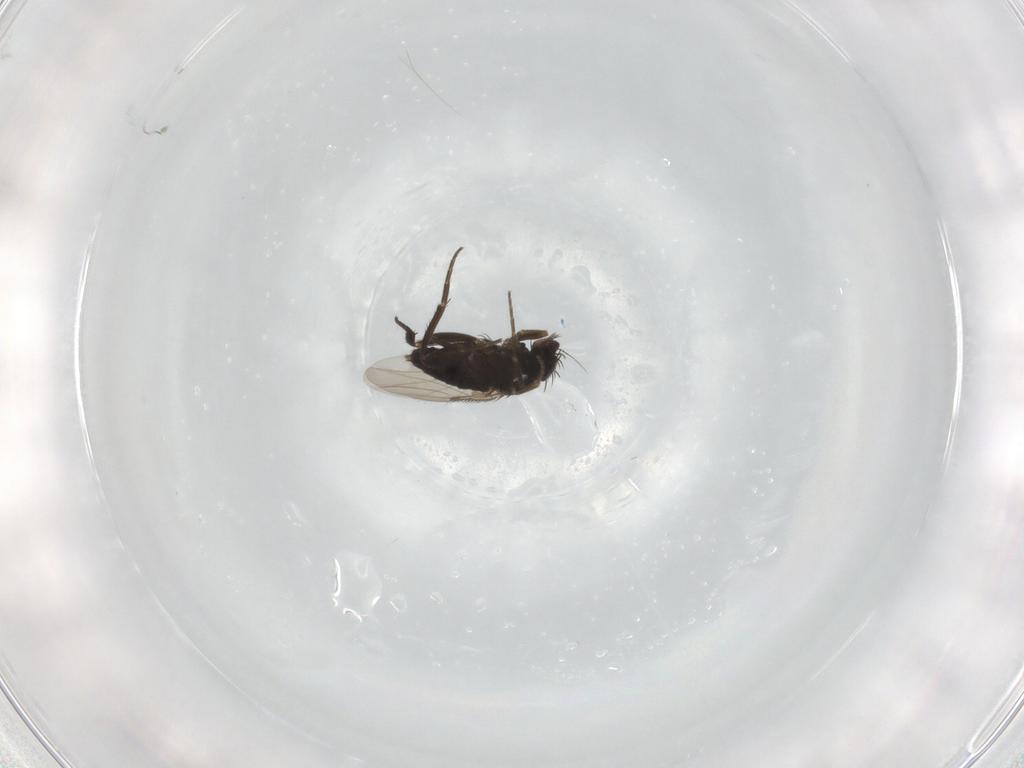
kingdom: Animalia
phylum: Arthropoda
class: Insecta
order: Diptera
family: Phoridae
